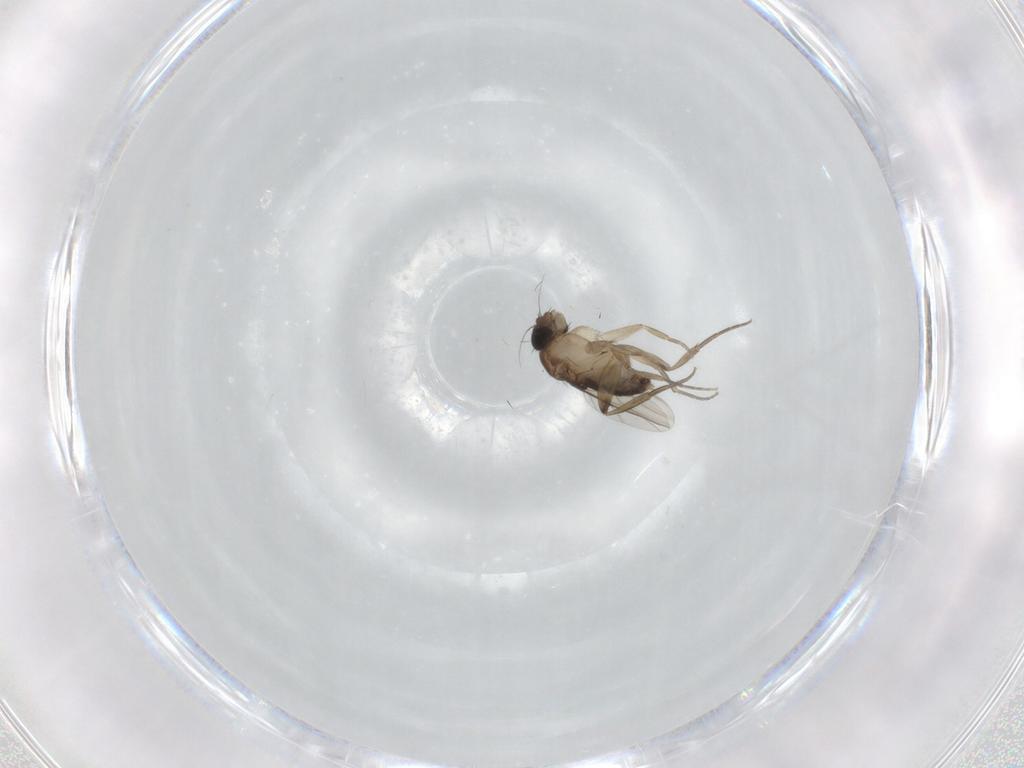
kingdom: Animalia
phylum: Arthropoda
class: Insecta
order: Diptera
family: Phoridae
